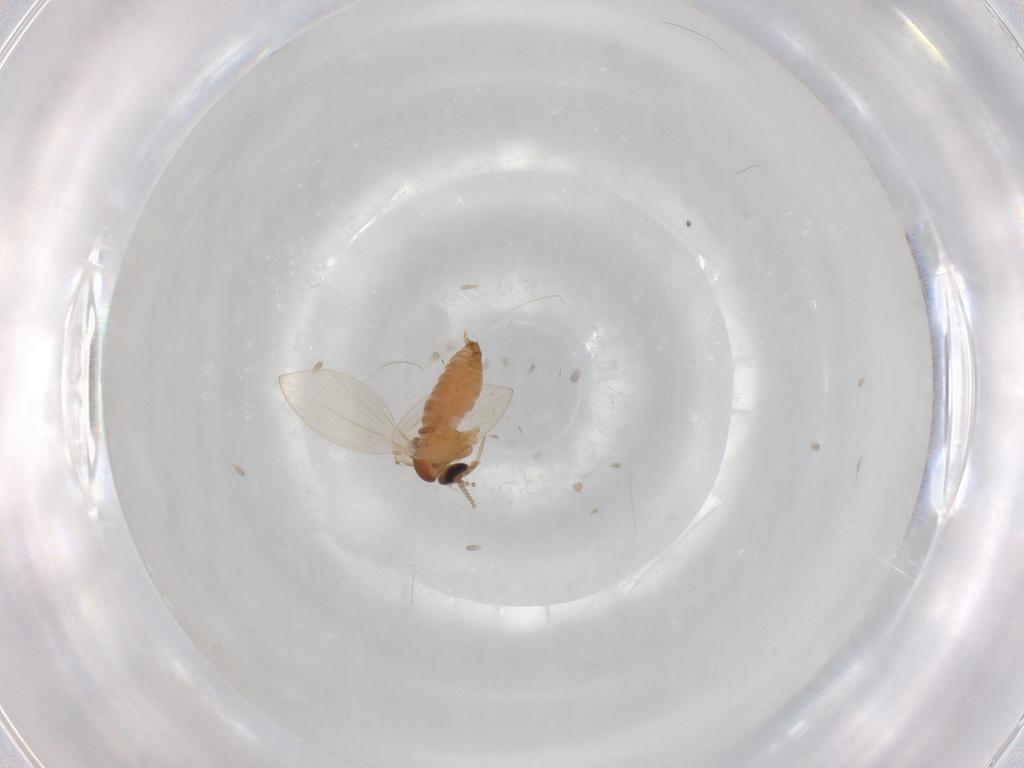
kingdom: Animalia
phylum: Arthropoda
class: Insecta
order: Diptera
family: Psychodidae
